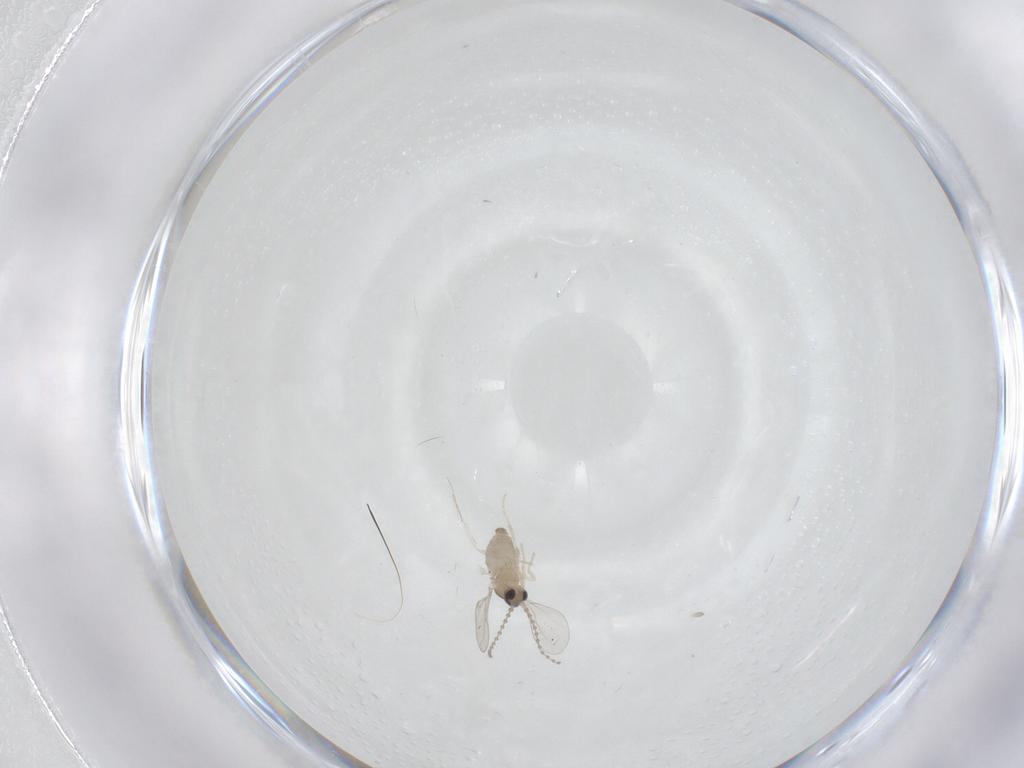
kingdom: Animalia
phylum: Arthropoda
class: Insecta
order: Diptera
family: Cecidomyiidae
